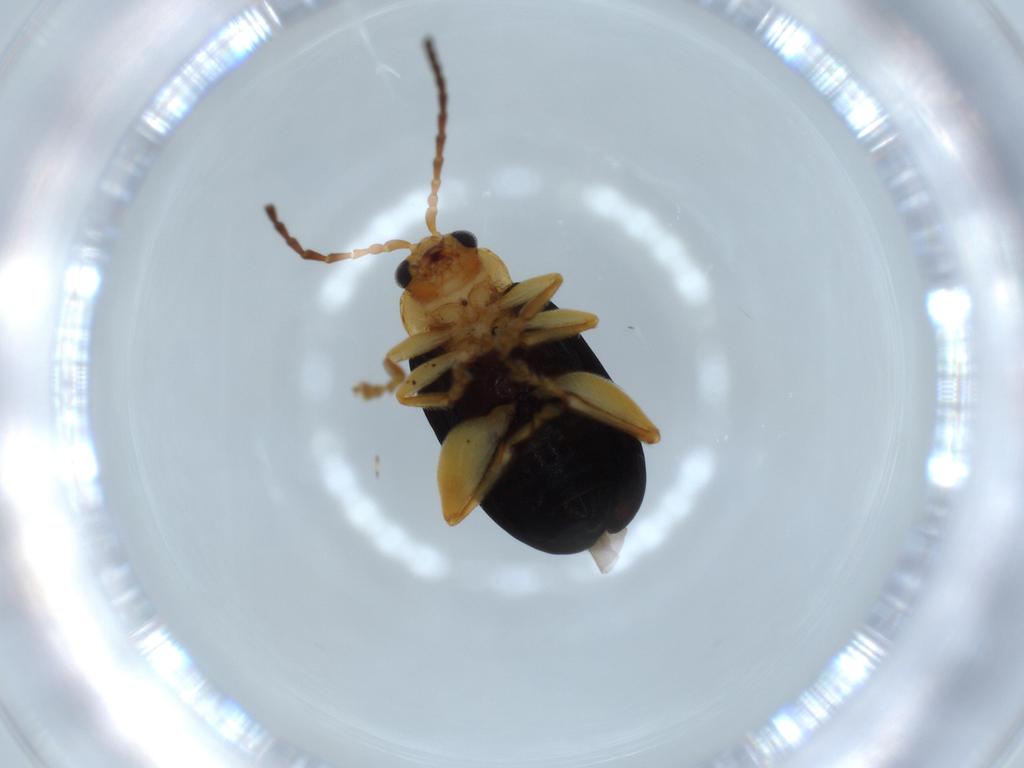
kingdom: Animalia
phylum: Arthropoda
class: Insecta
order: Coleoptera
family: Chrysomelidae
